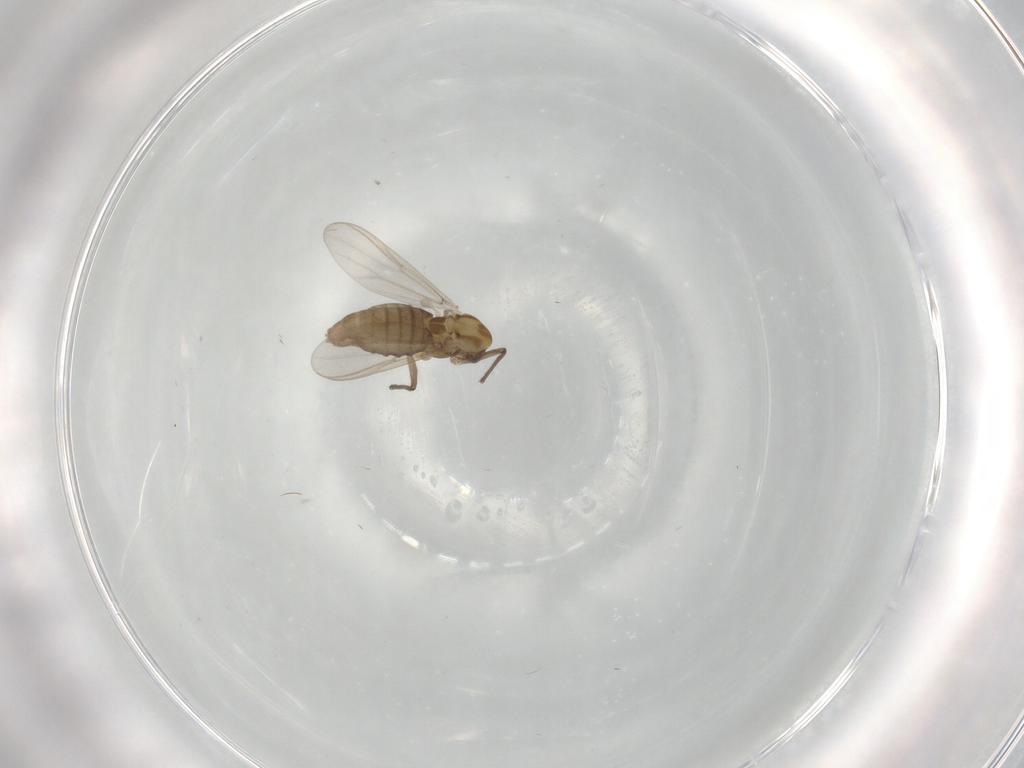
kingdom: Animalia
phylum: Arthropoda
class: Insecta
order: Diptera
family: Chironomidae
